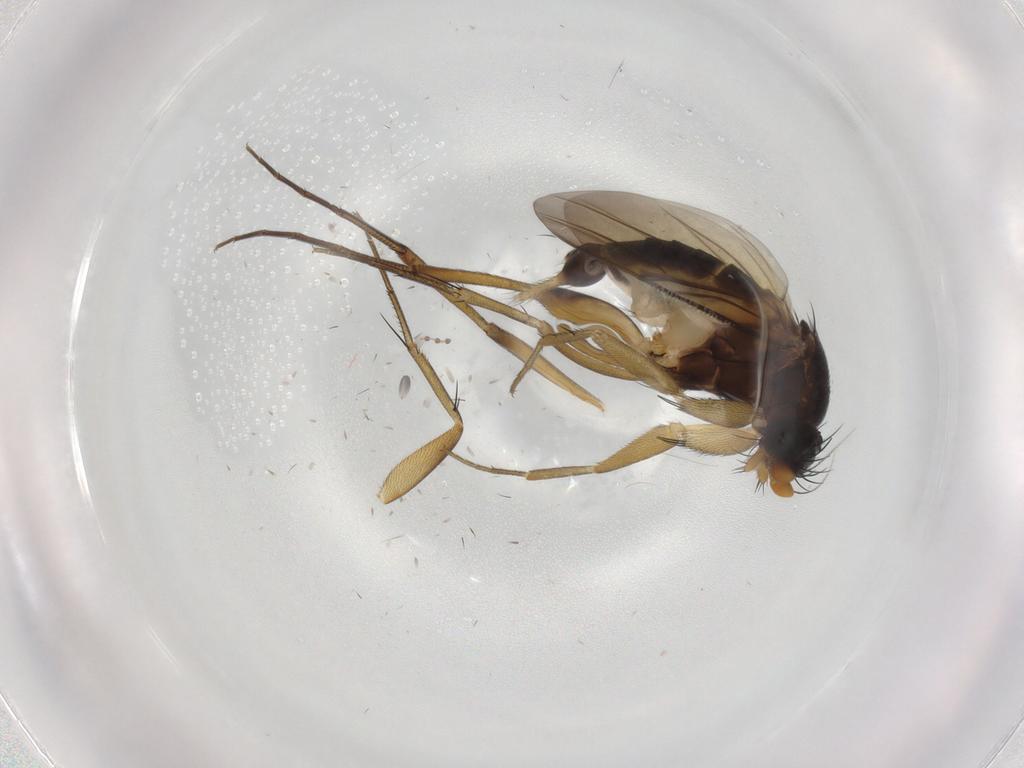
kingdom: Animalia
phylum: Arthropoda
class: Insecta
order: Diptera
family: Phoridae
